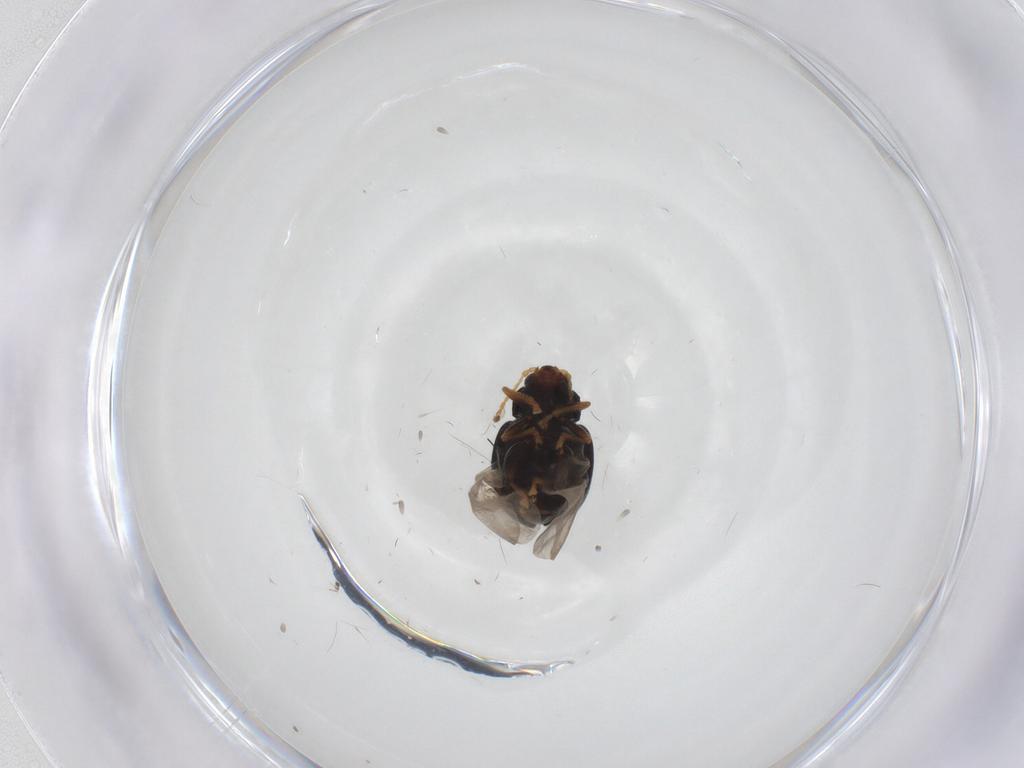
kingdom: Animalia
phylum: Arthropoda
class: Insecta
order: Coleoptera
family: Chrysomelidae
